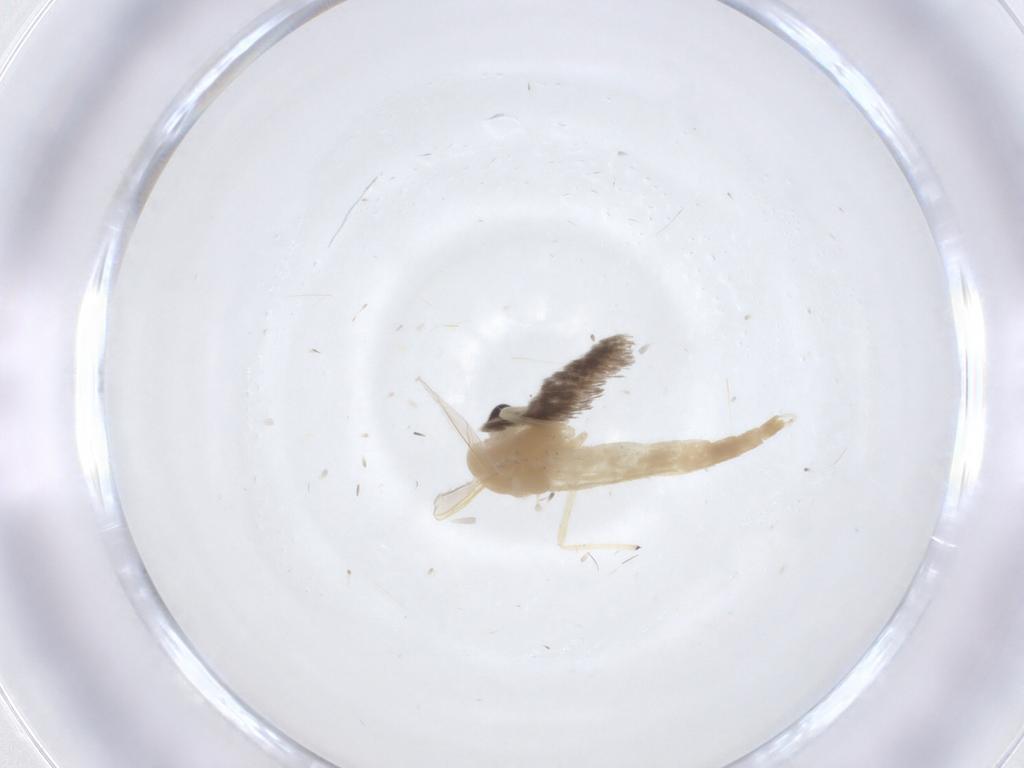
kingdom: Animalia
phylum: Arthropoda
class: Insecta
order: Diptera
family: Chironomidae
